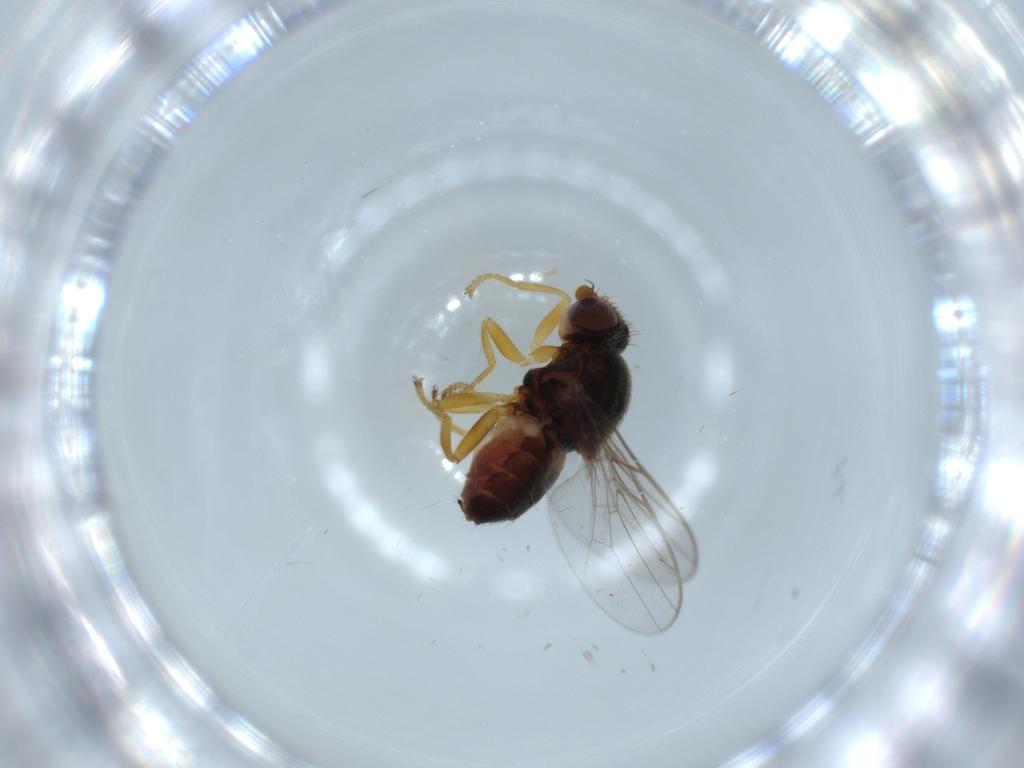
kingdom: Animalia
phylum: Arthropoda
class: Insecta
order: Diptera
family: Chloropidae
